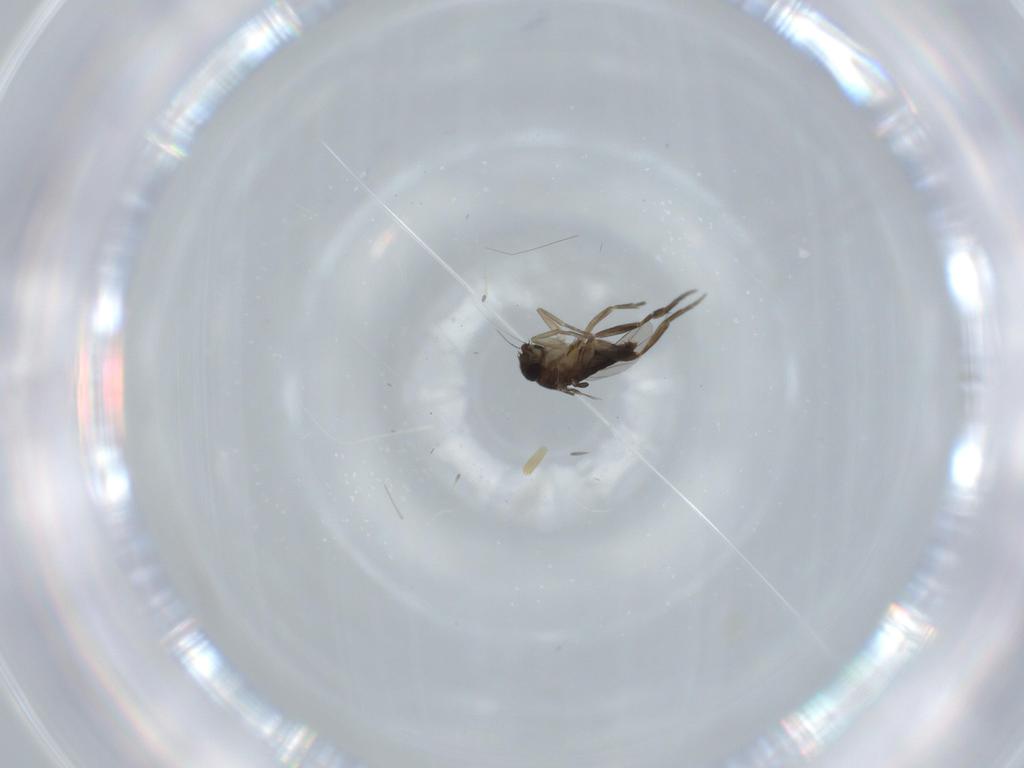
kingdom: Animalia
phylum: Arthropoda
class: Insecta
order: Diptera
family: Phoridae
